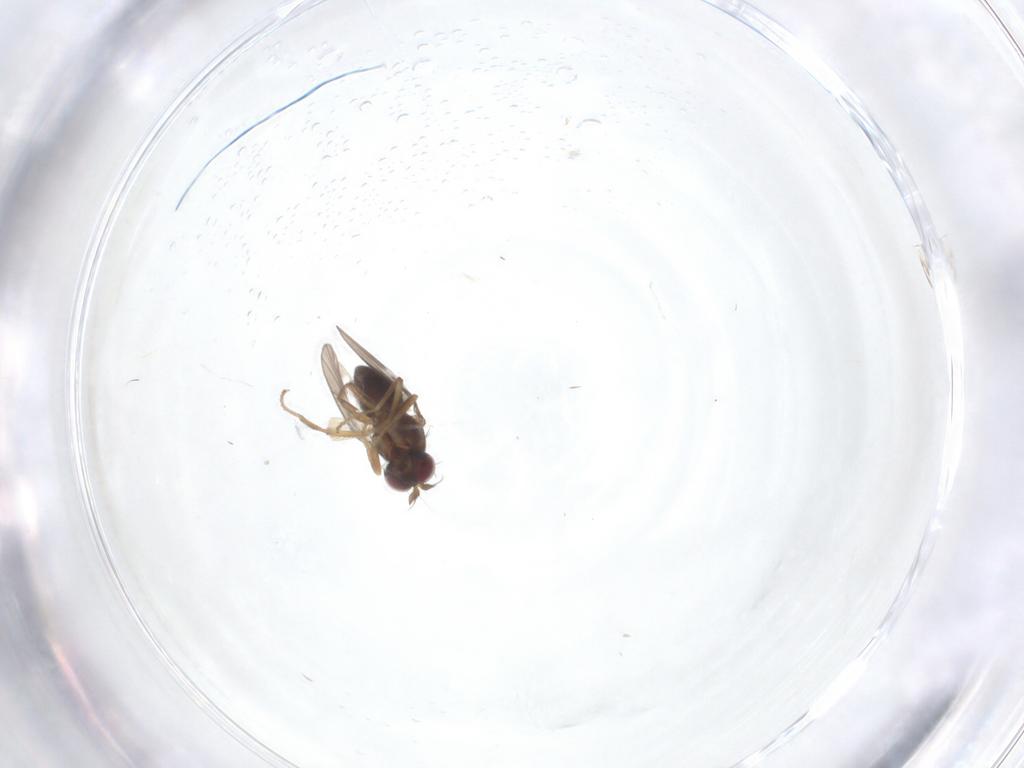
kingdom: Animalia
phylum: Arthropoda
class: Insecta
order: Diptera
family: Ephydridae
